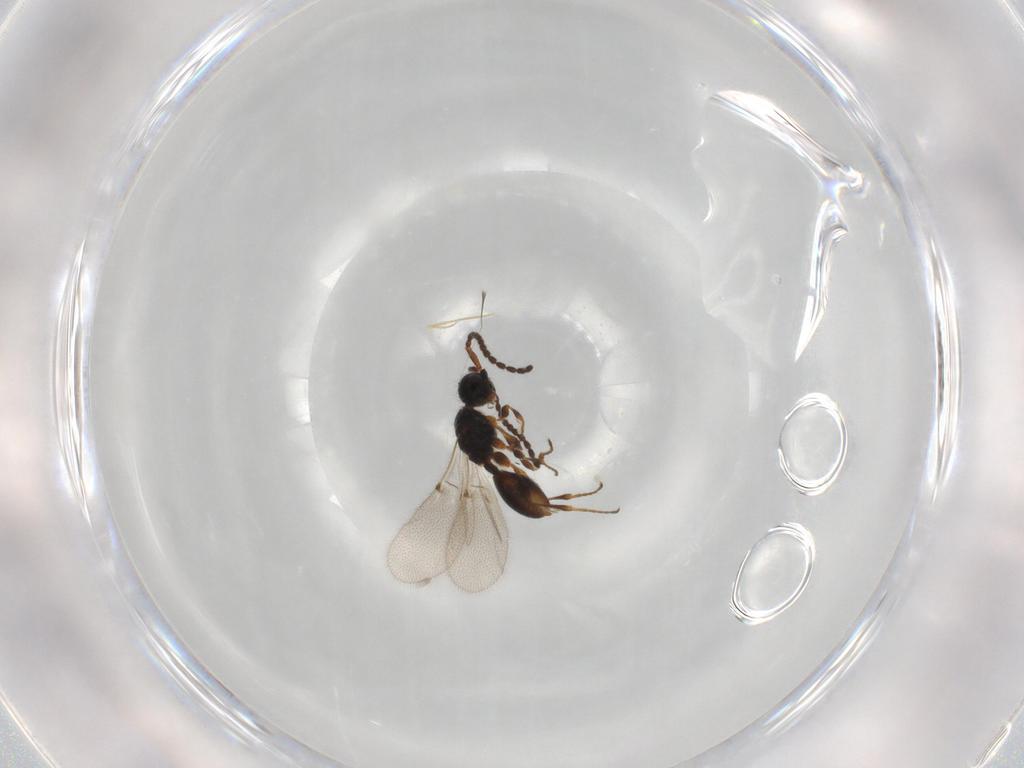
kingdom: Animalia
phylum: Arthropoda
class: Insecta
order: Hymenoptera
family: Diapriidae
